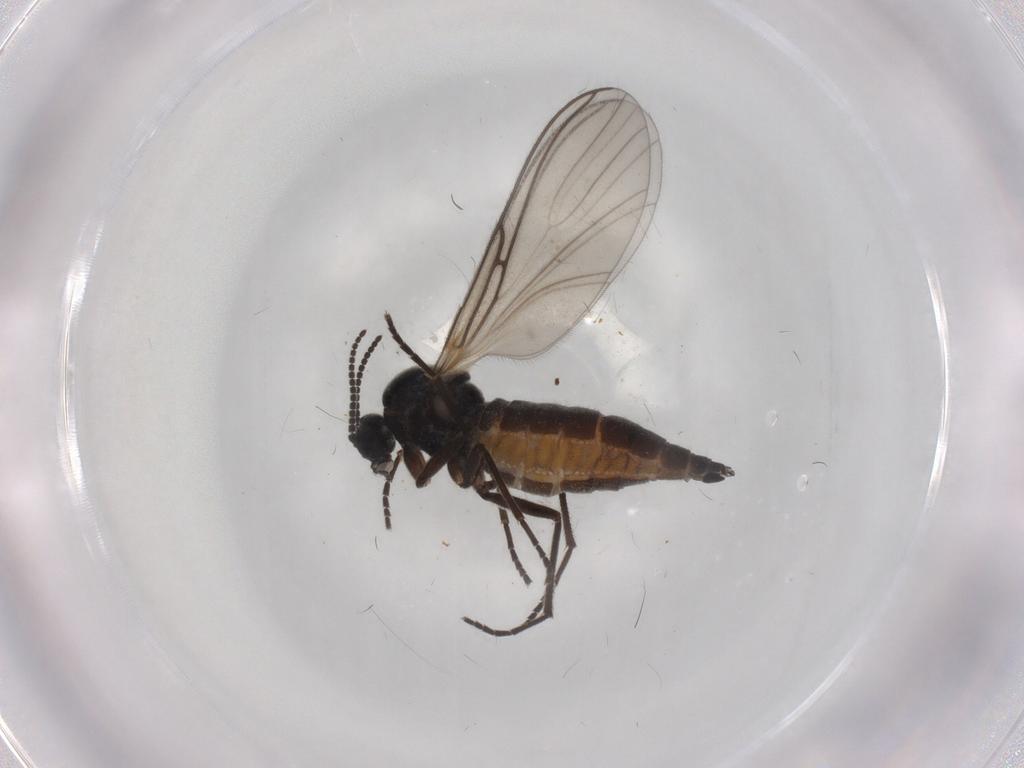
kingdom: Animalia
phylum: Arthropoda
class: Insecta
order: Diptera
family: Sciaridae
